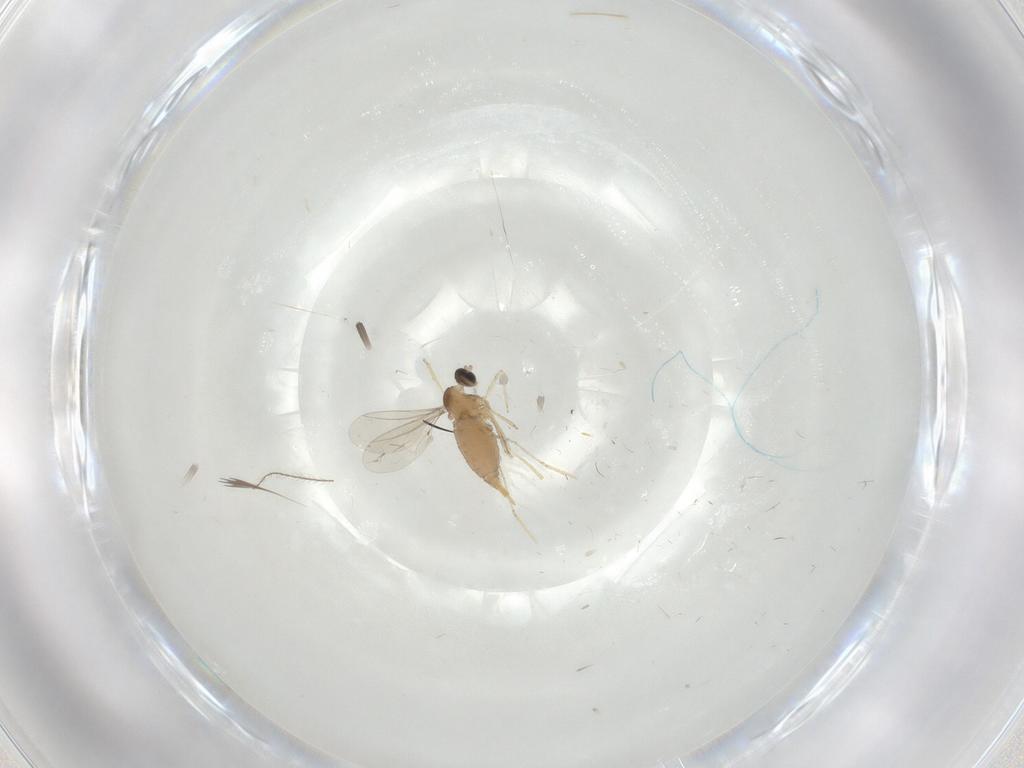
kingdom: Animalia
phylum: Arthropoda
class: Insecta
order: Diptera
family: Cecidomyiidae
